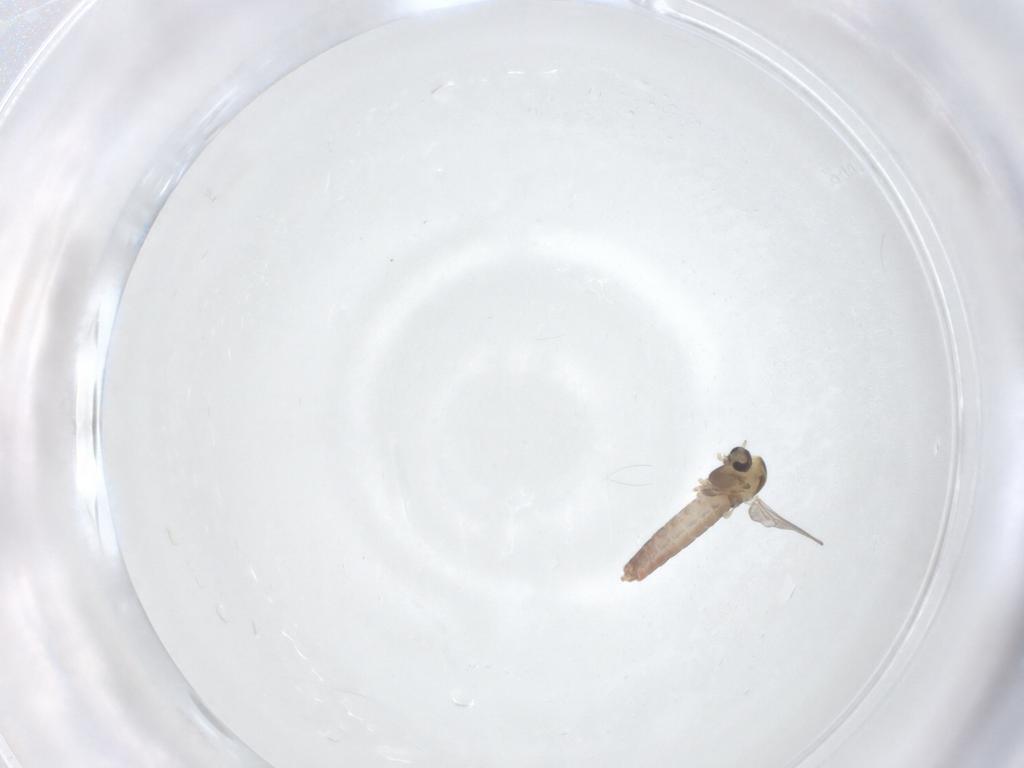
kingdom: Animalia
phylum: Arthropoda
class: Insecta
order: Diptera
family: Chironomidae
